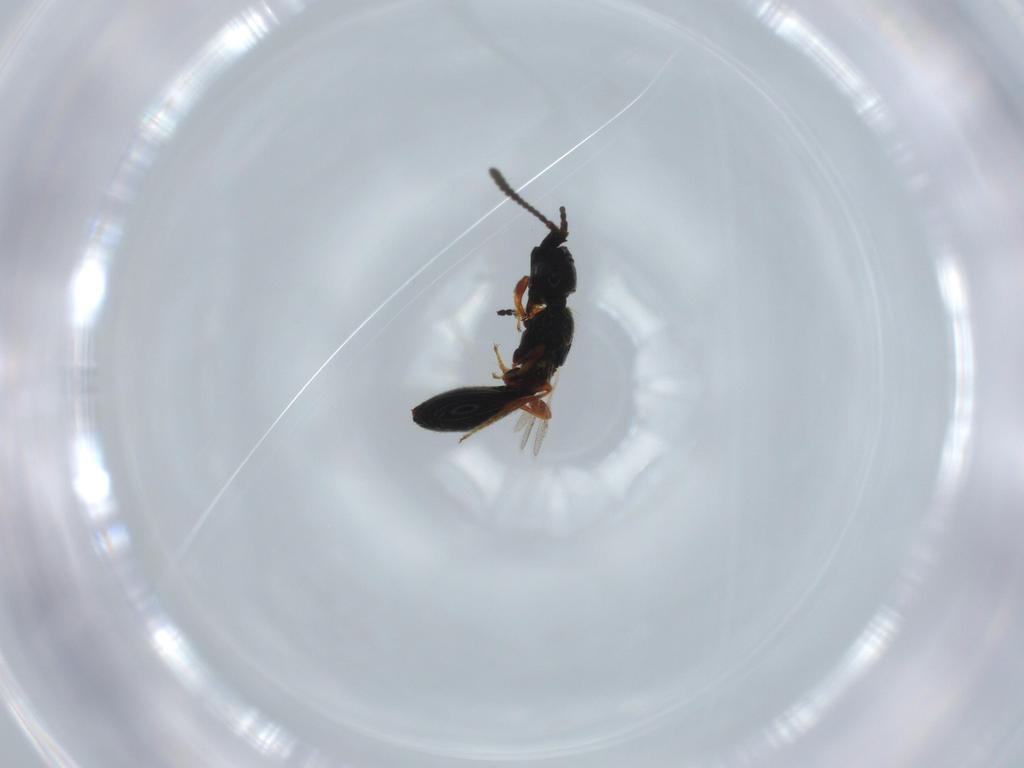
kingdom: Animalia
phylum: Arthropoda
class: Insecta
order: Hymenoptera
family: Diapriidae
